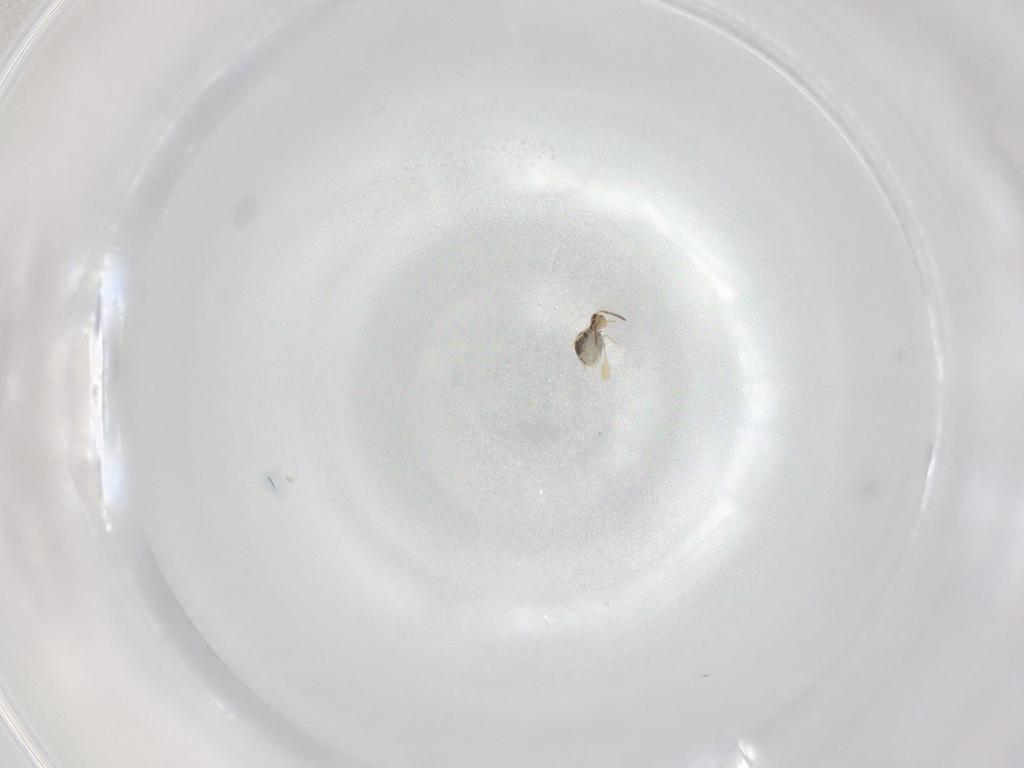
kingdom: Animalia
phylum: Arthropoda
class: Collembola
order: Symphypleona
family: Katiannidae
